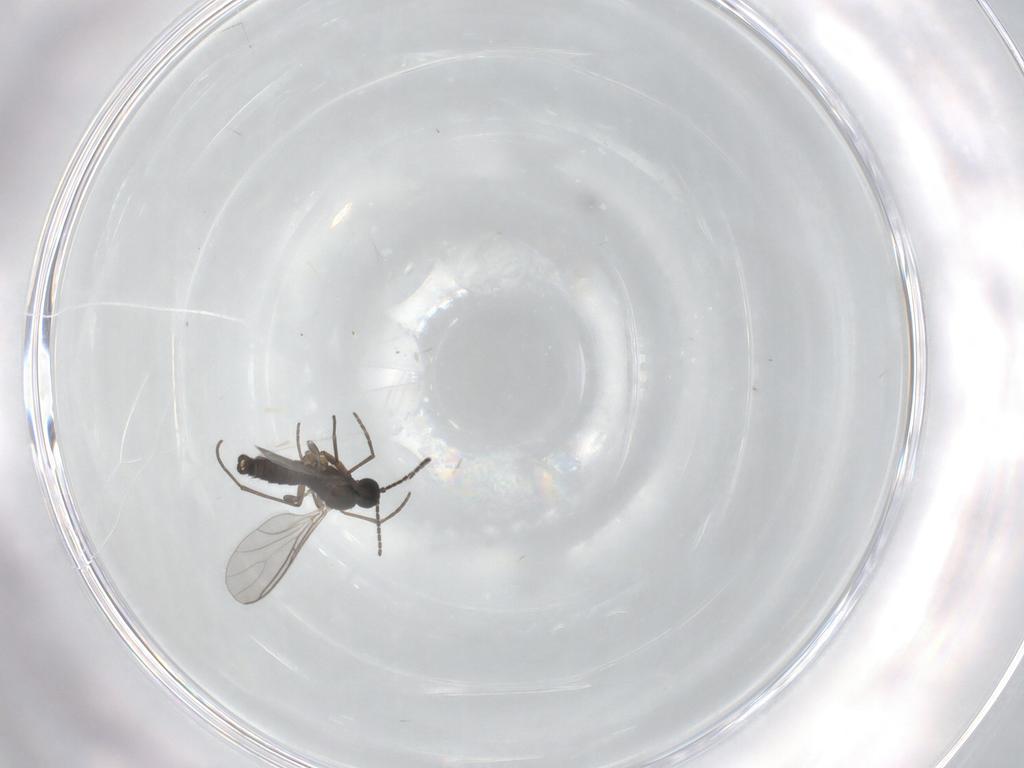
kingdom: Animalia
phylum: Arthropoda
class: Insecta
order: Diptera
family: Sciaridae
